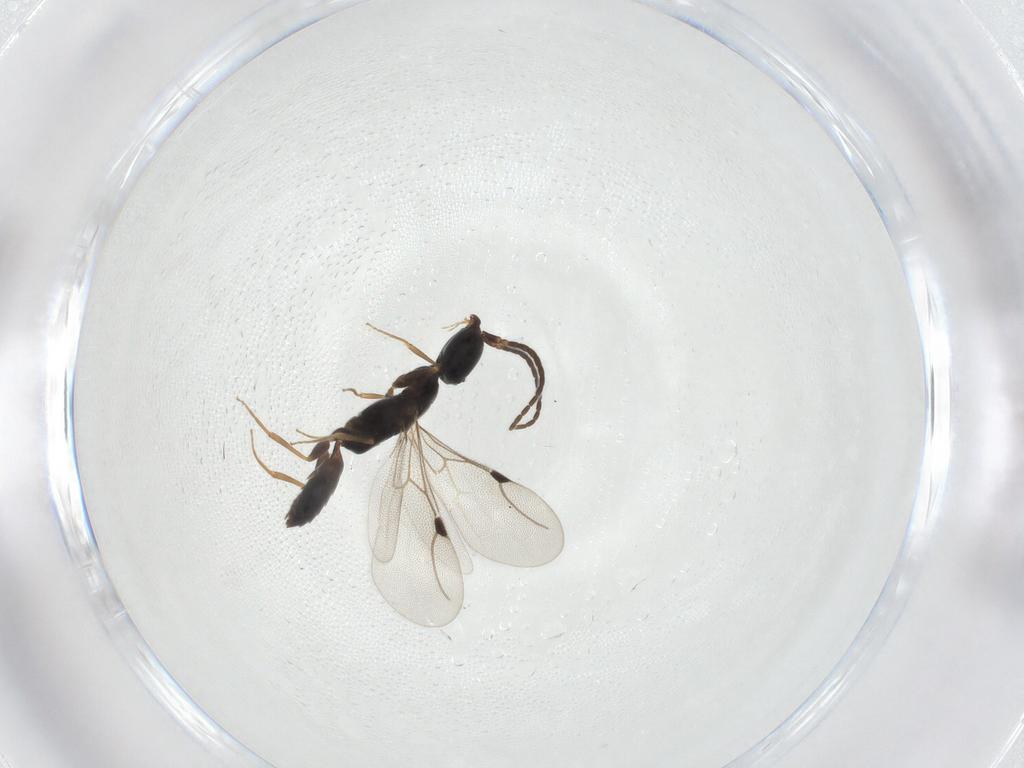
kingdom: Animalia
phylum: Arthropoda
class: Insecta
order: Hymenoptera
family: Bethylidae
